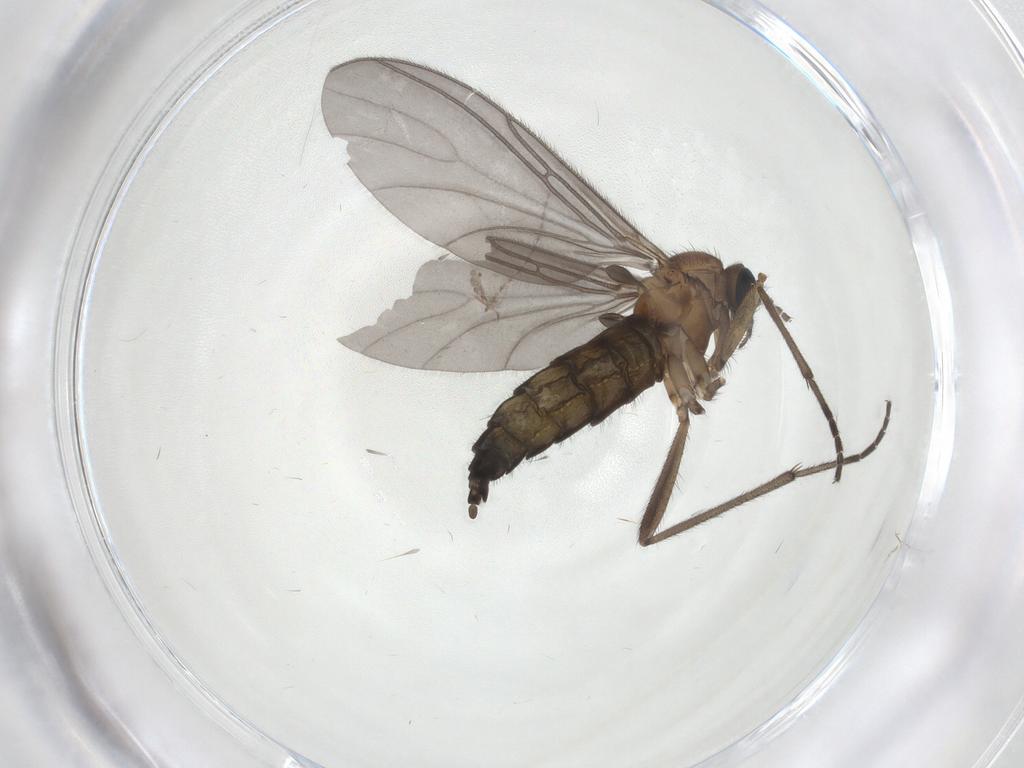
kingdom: Animalia
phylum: Arthropoda
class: Insecta
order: Diptera
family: Cecidomyiidae
